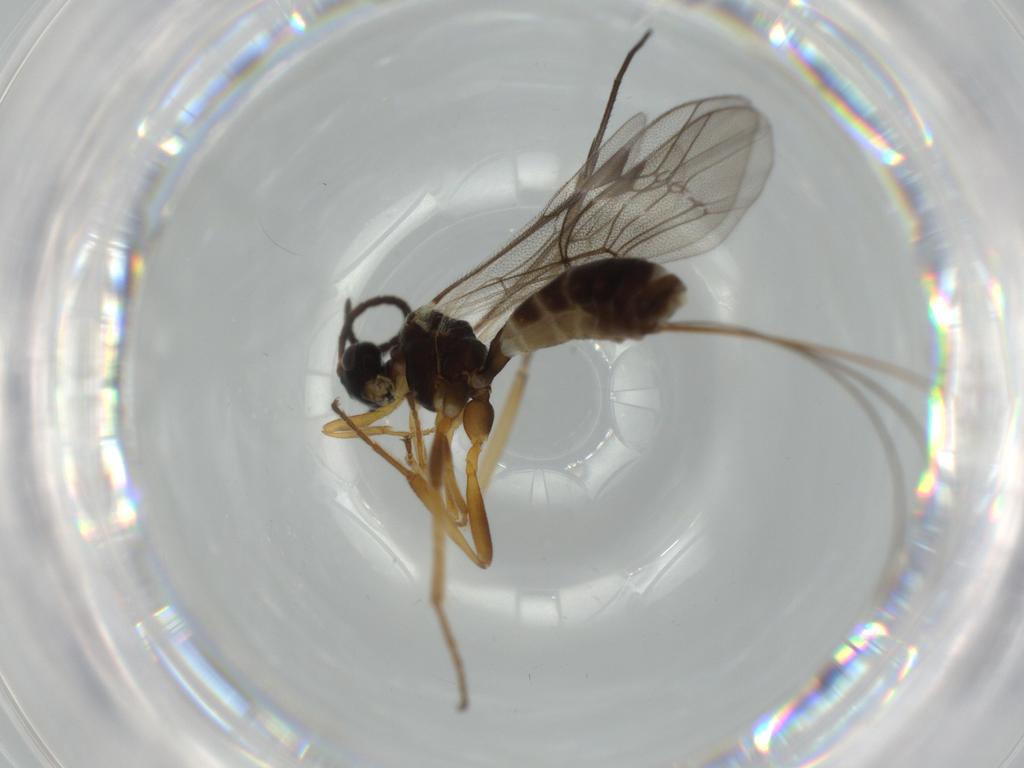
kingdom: Animalia
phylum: Arthropoda
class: Insecta
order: Hymenoptera
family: Ichneumonidae
